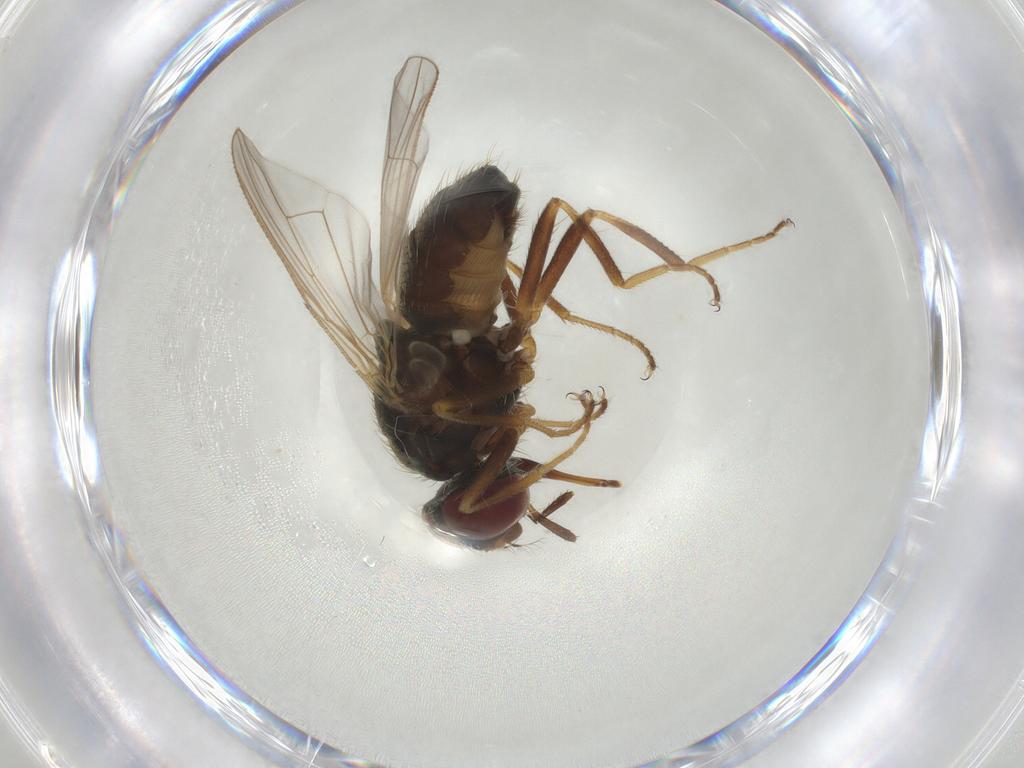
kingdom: Animalia
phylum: Arthropoda
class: Insecta
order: Diptera
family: Muscidae
